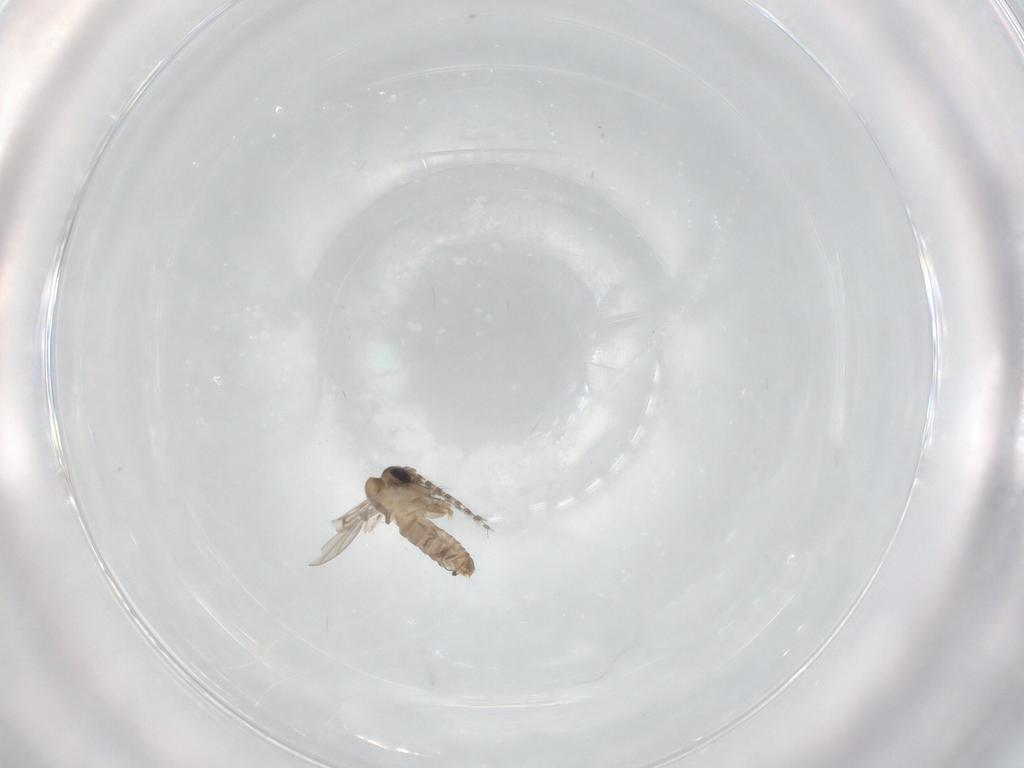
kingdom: Animalia
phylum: Arthropoda
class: Insecta
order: Diptera
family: Psychodidae
